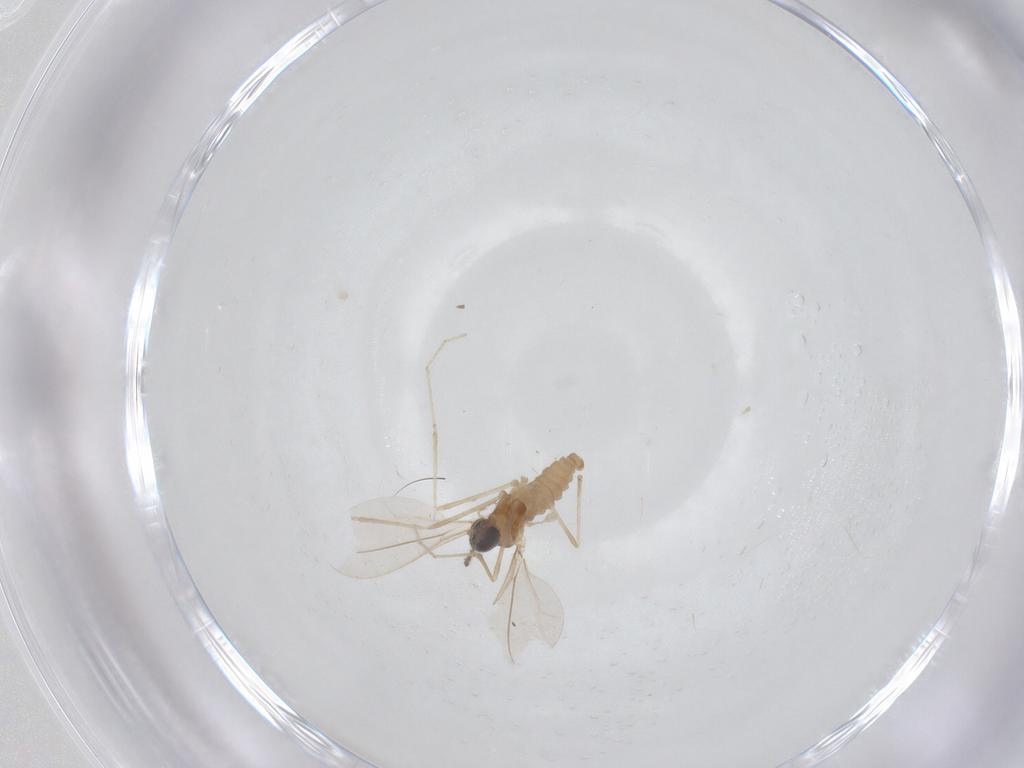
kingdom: Animalia
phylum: Arthropoda
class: Insecta
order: Diptera
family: Cecidomyiidae
